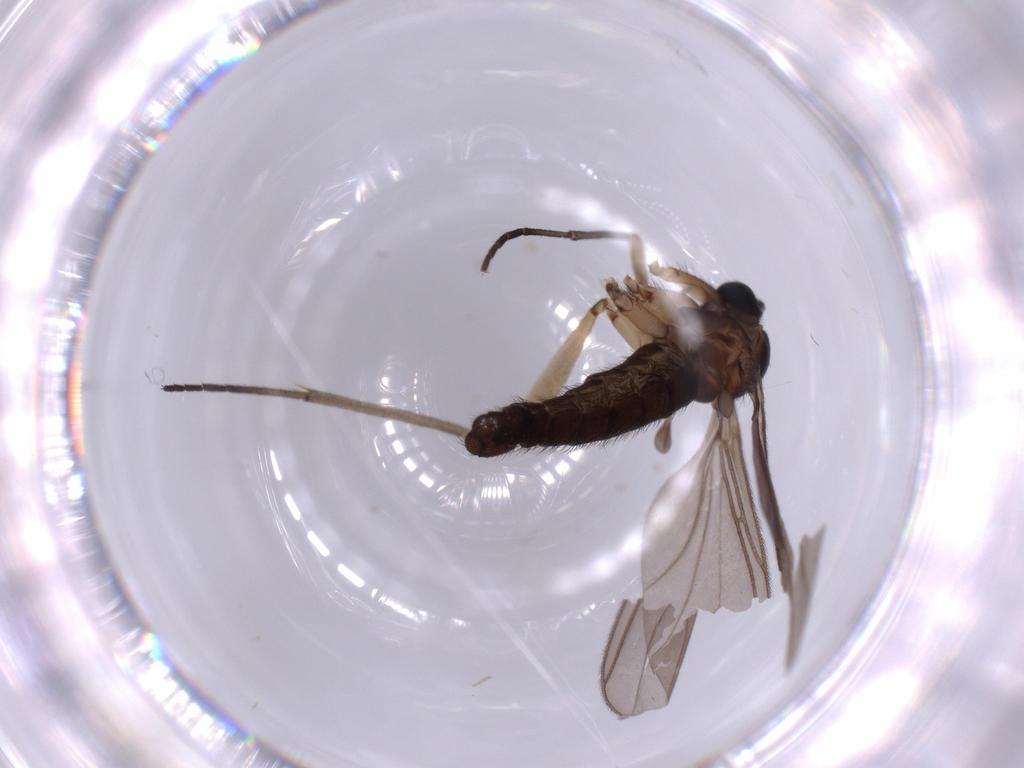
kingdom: Animalia
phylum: Arthropoda
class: Insecta
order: Diptera
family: Sciaridae
